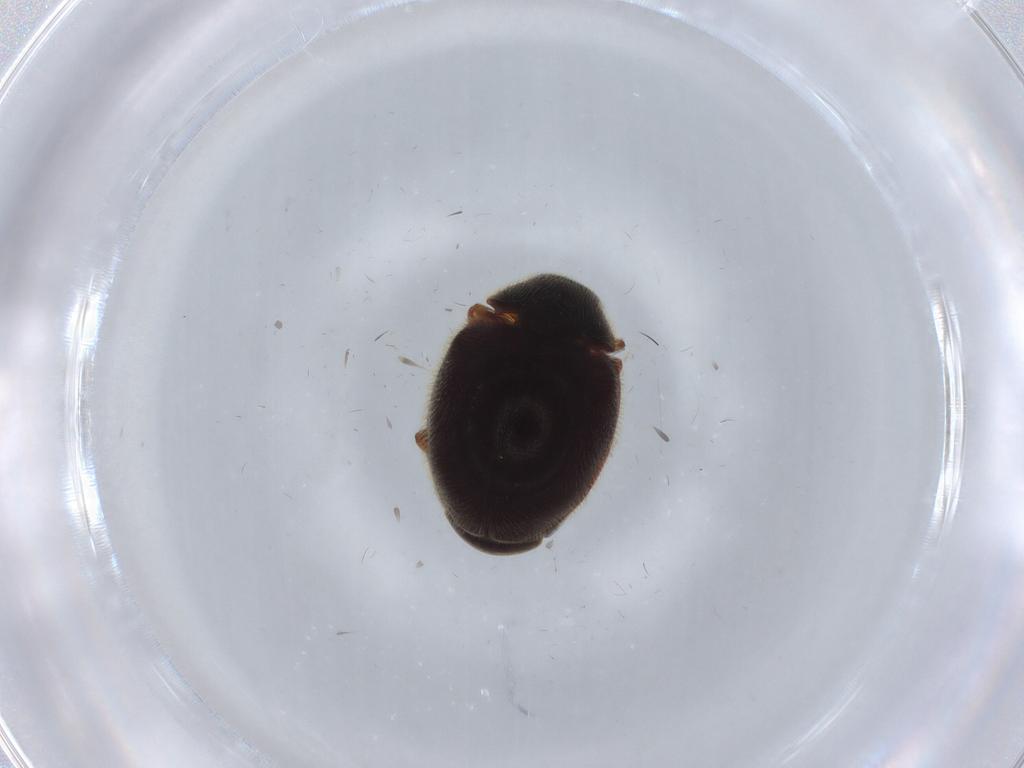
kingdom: Animalia
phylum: Arthropoda
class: Insecta
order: Coleoptera
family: Coccinellidae
